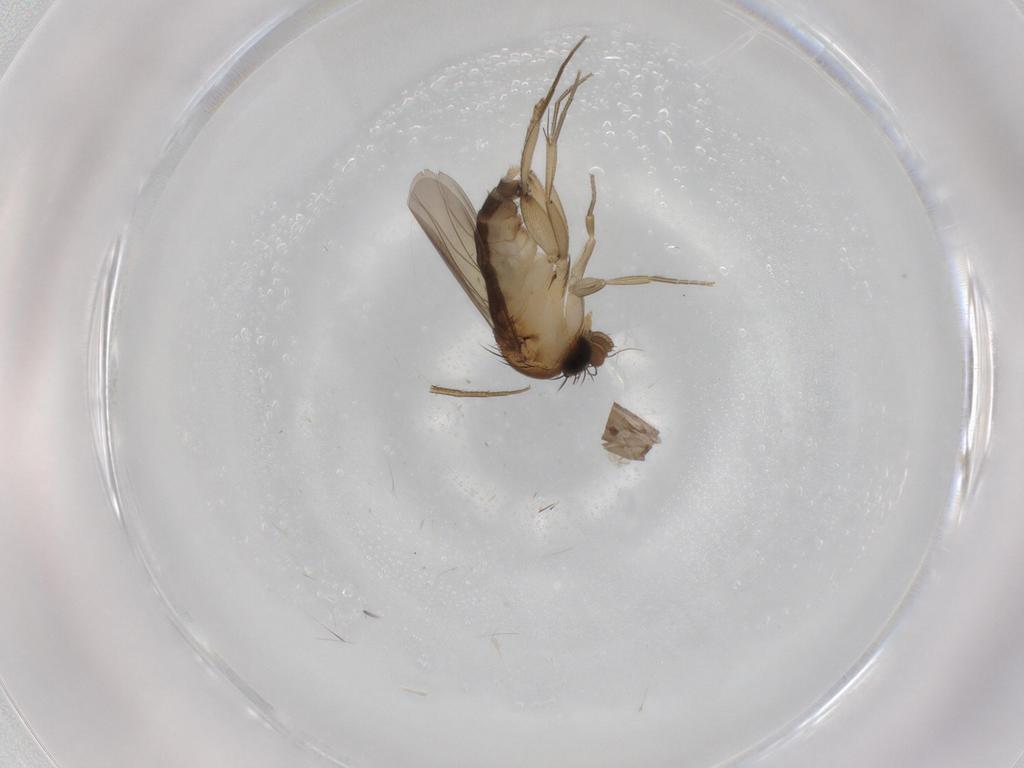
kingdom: Animalia
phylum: Arthropoda
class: Insecta
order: Diptera
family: Phoridae
